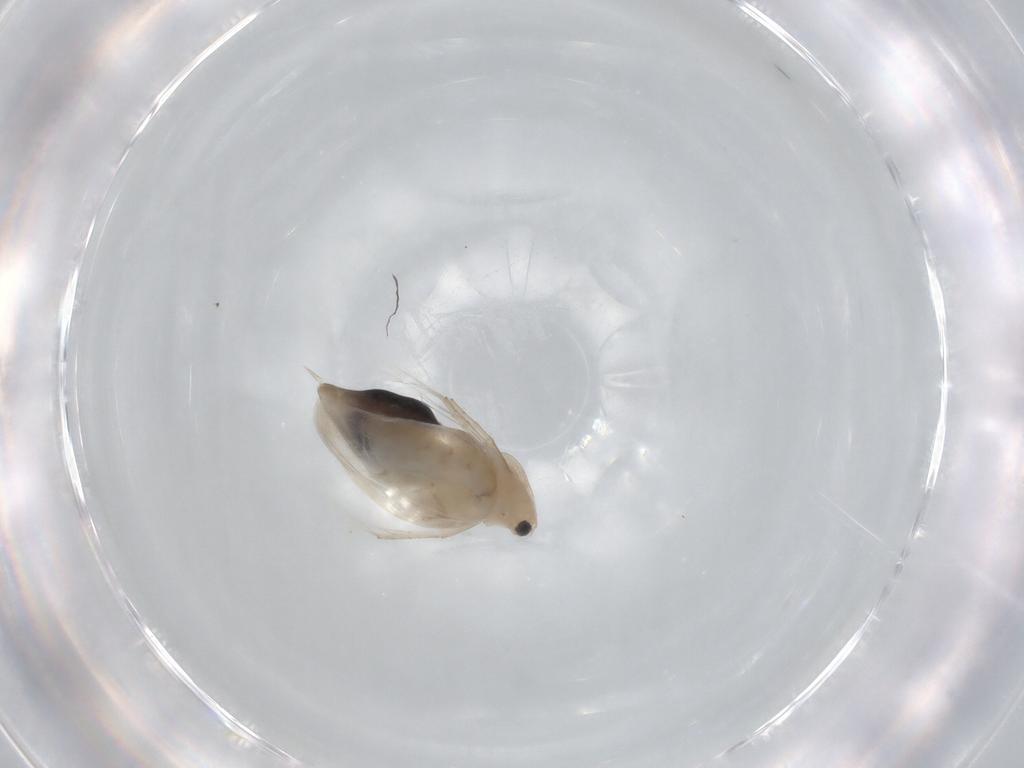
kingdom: Animalia
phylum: Arthropoda
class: Branchiopoda
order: Diplostraca
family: Daphniidae
